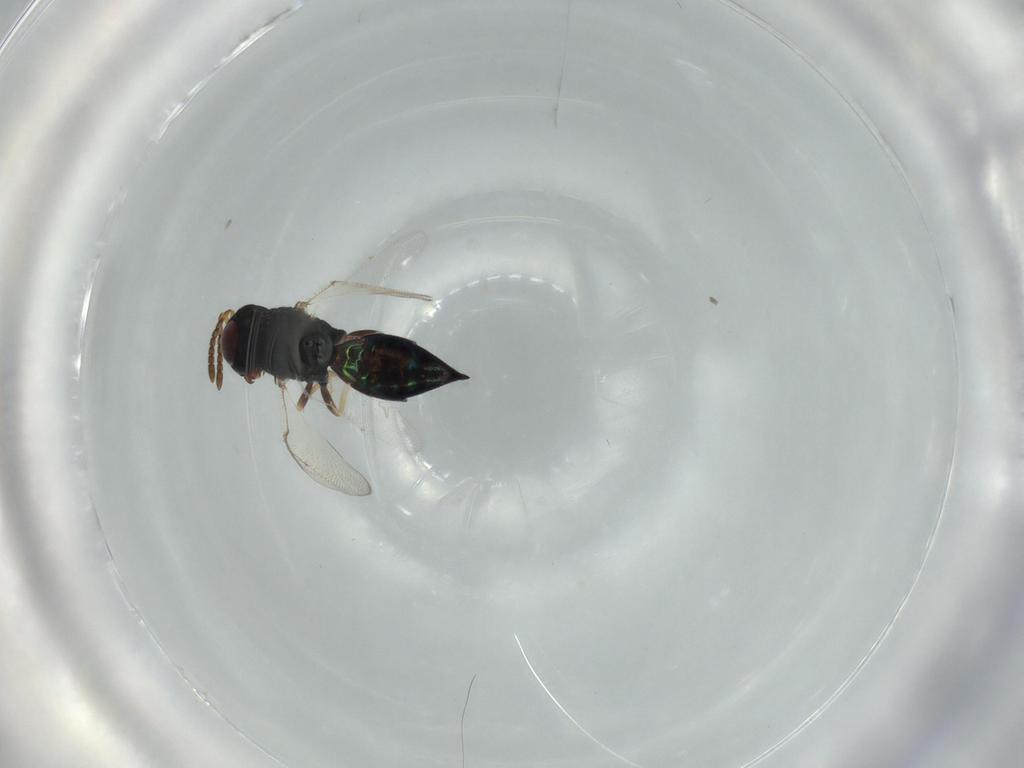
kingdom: Animalia
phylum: Arthropoda
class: Insecta
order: Hymenoptera
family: Pteromalidae
